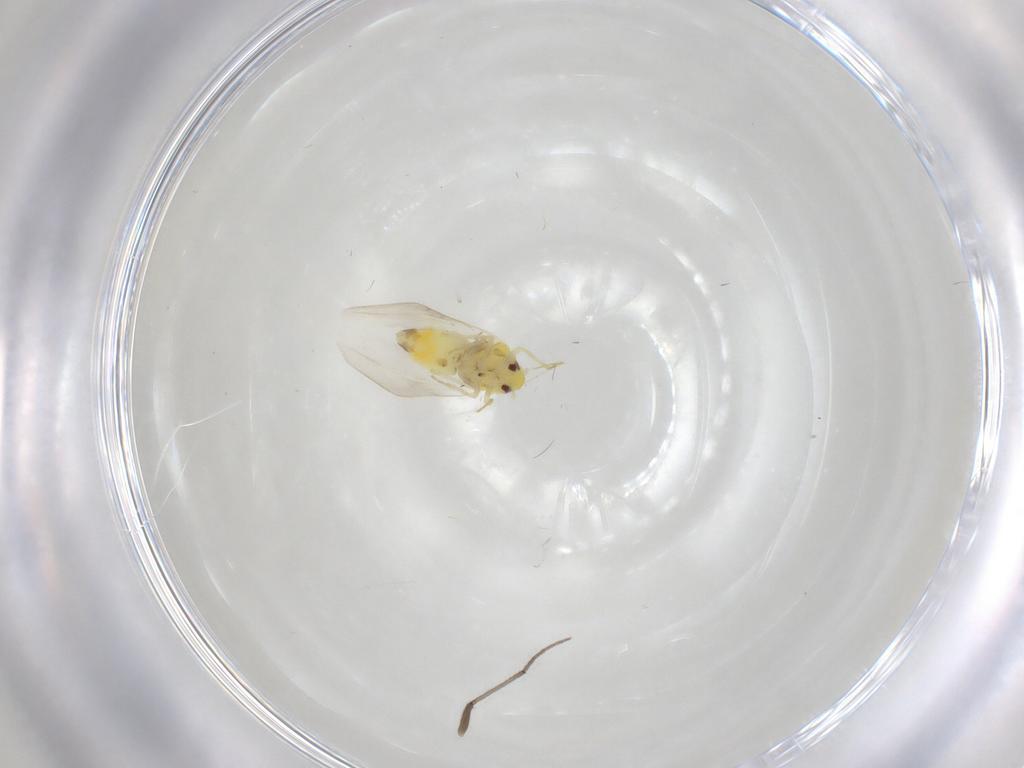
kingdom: Animalia
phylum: Arthropoda
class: Insecta
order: Hemiptera
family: Aleyrodidae
